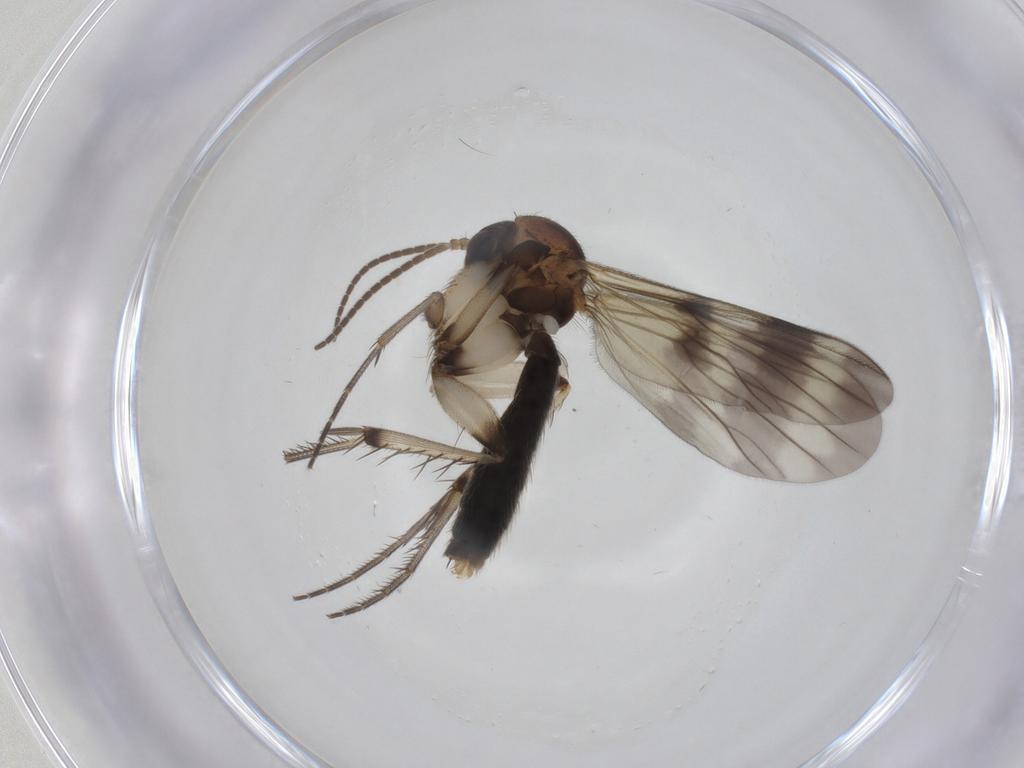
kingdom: Animalia
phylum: Arthropoda
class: Insecta
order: Diptera
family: Mycetophilidae
